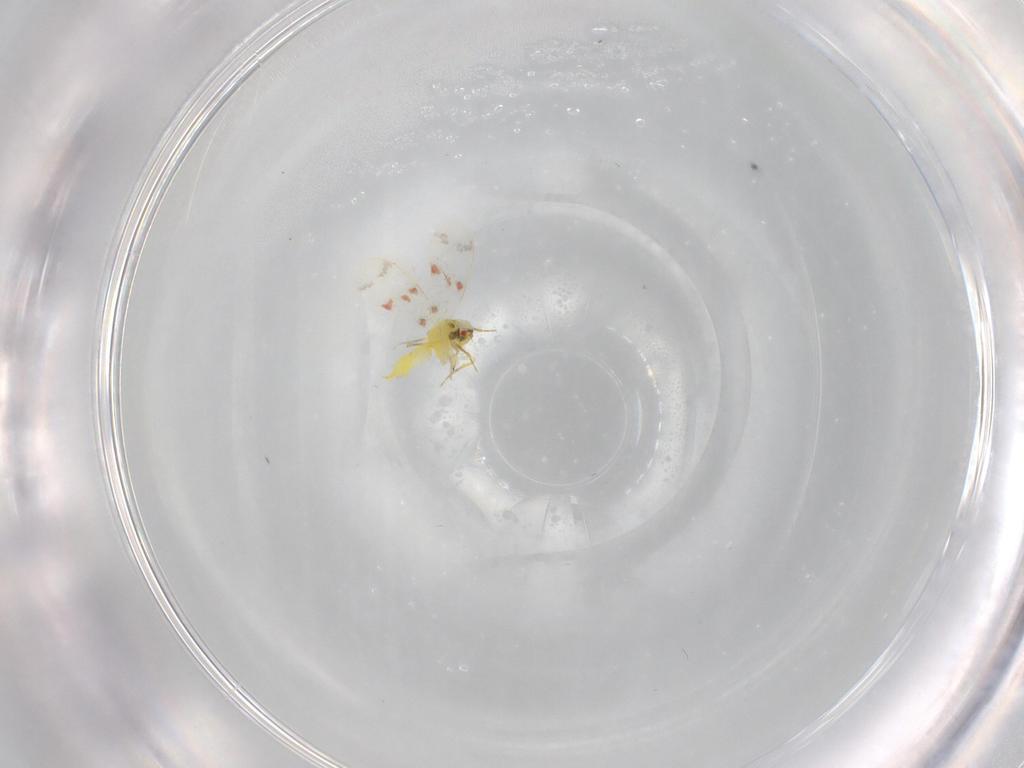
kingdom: Animalia
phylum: Arthropoda
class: Insecta
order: Hemiptera
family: Aleyrodidae
